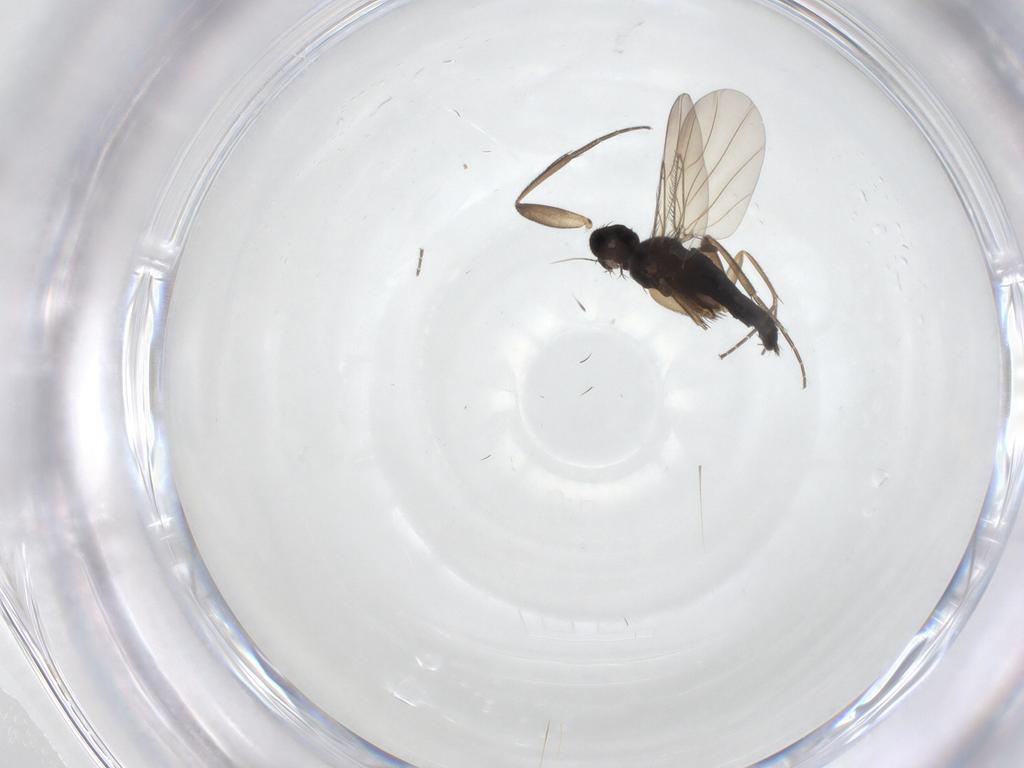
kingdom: Animalia
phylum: Arthropoda
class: Insecta
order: Diptera
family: Phoridae
